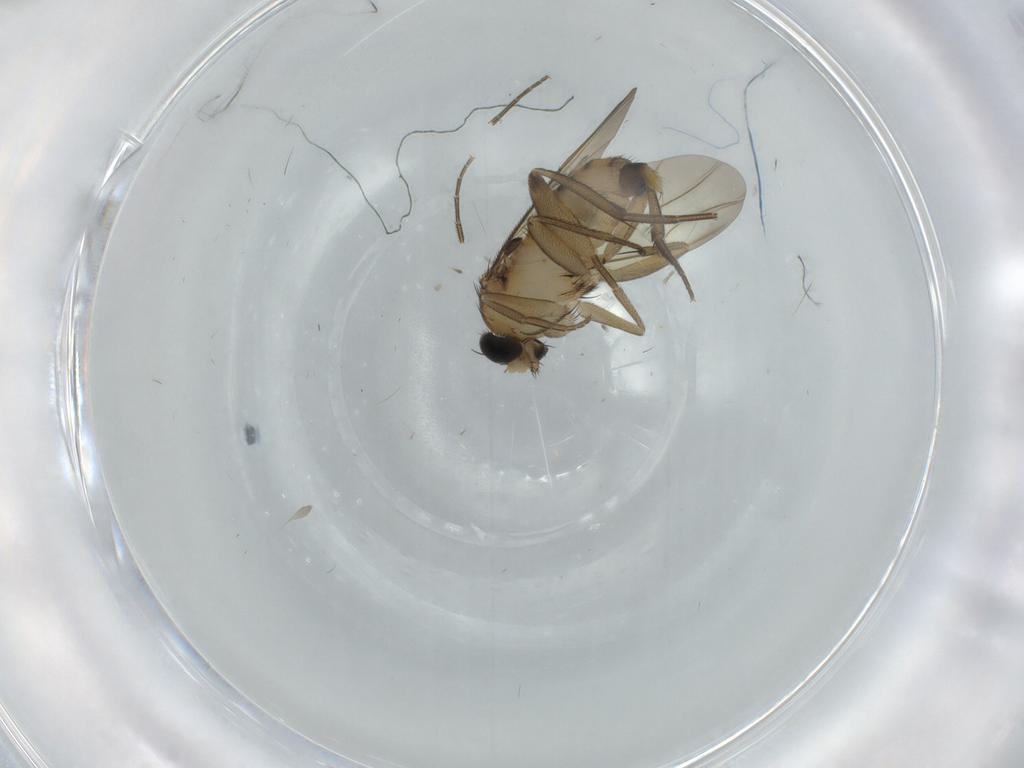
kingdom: Animalia
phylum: Arthropoda
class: Insecta
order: Diptera
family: Phoridae
